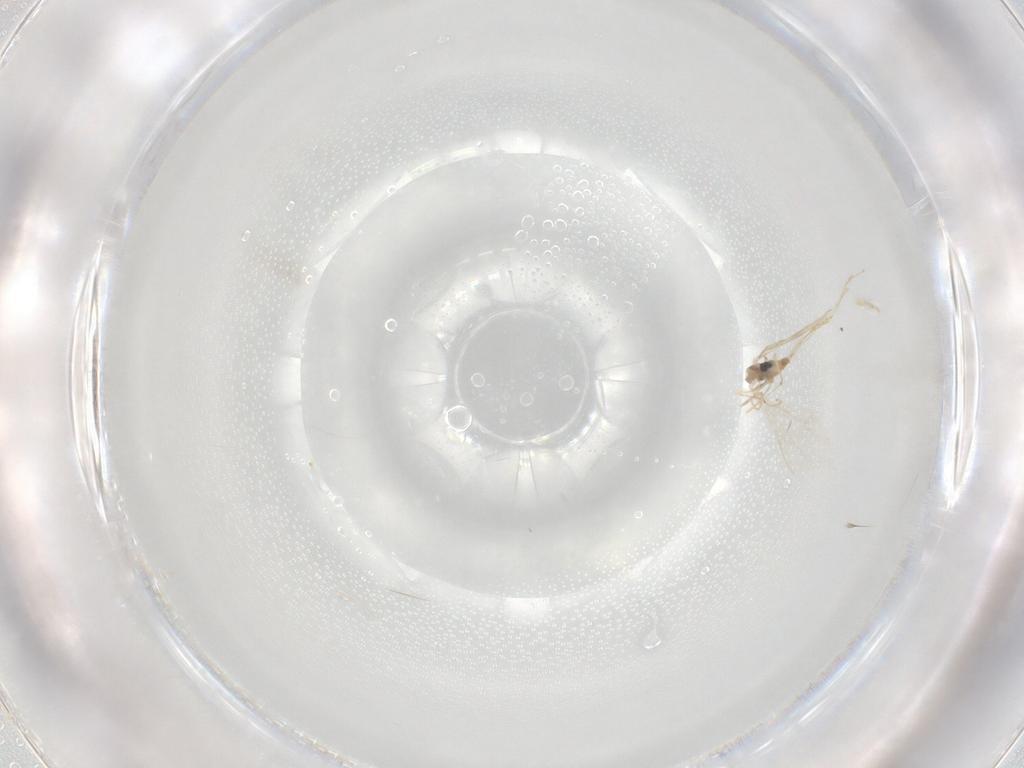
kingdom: Animalia
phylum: Arthropoda
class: Insecta
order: Diptera
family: Cecidomyiidae
